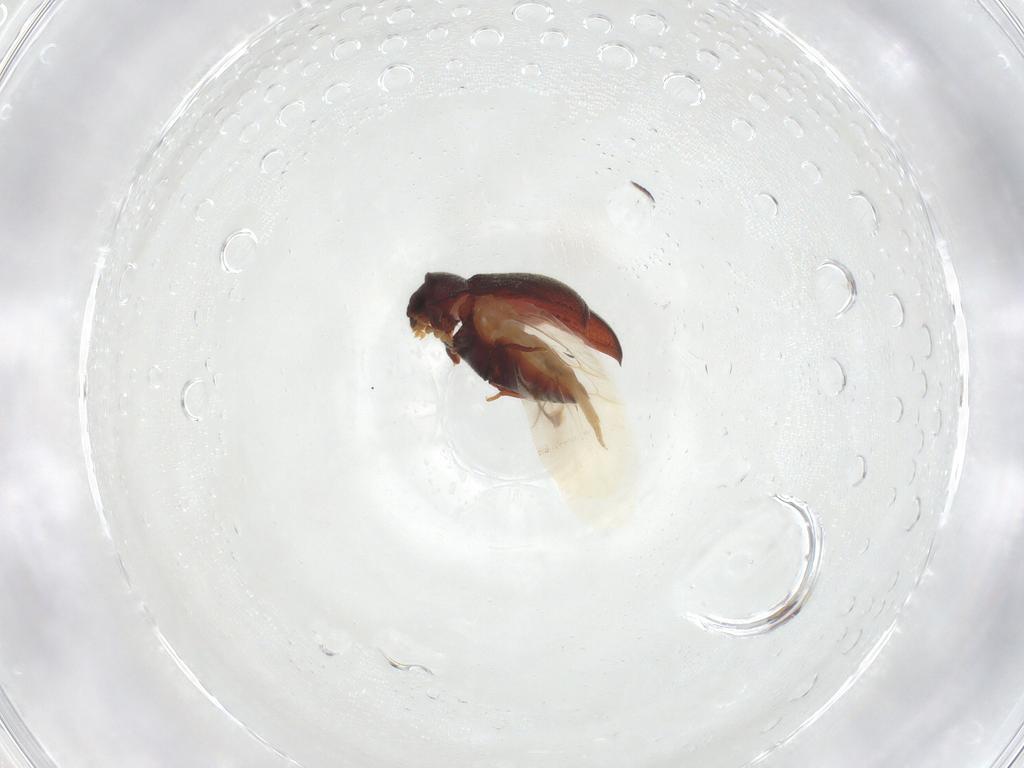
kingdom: Animalia
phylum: Arthropoda
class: Insecta
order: Coleoptera
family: Ptinidae
